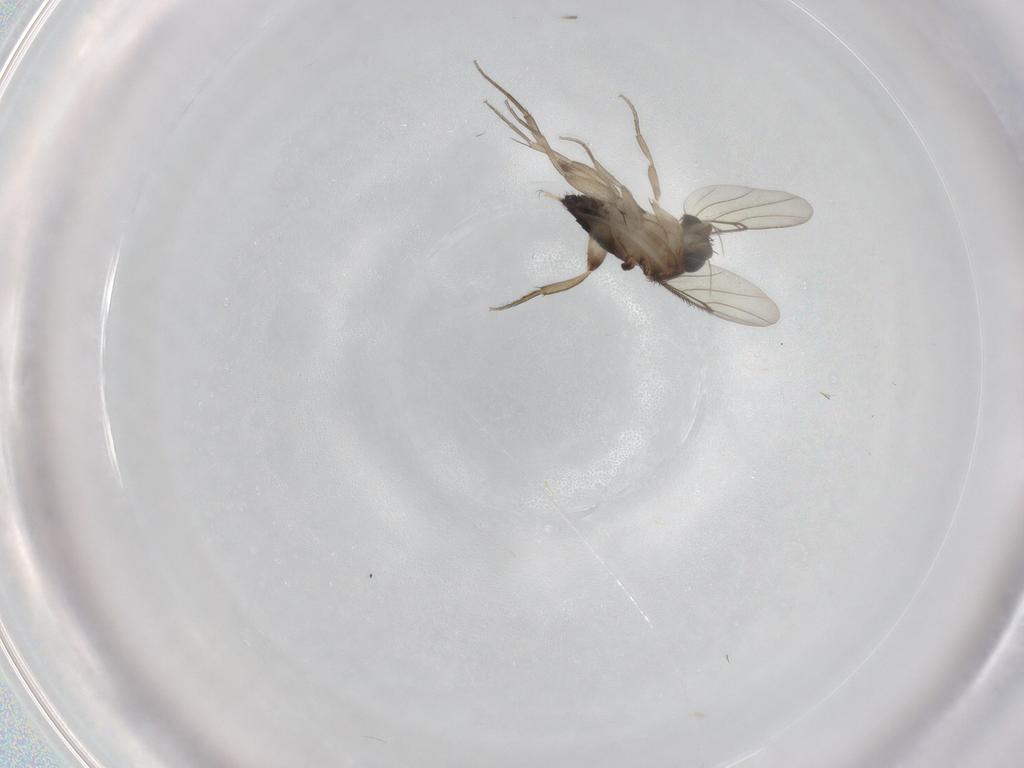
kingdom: Animalia
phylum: Arthropoda
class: Insecta
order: Diptera
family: Phoridae
